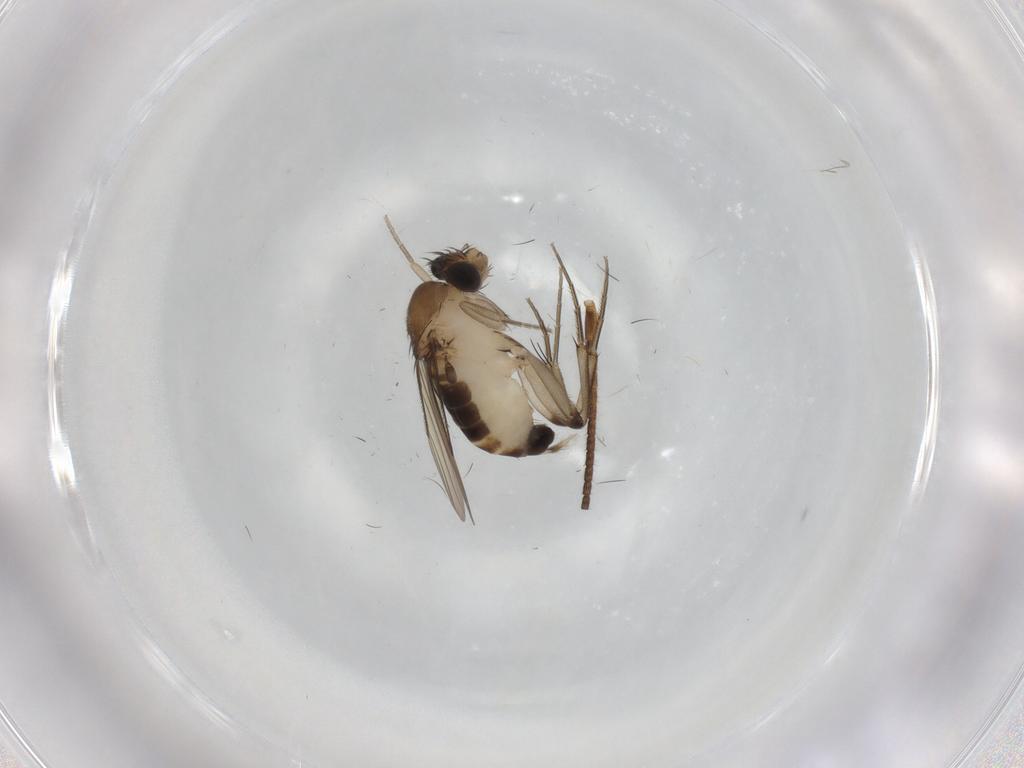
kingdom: Animalia
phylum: Arthropoda
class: Insecta
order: Diptera
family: Phoridae
